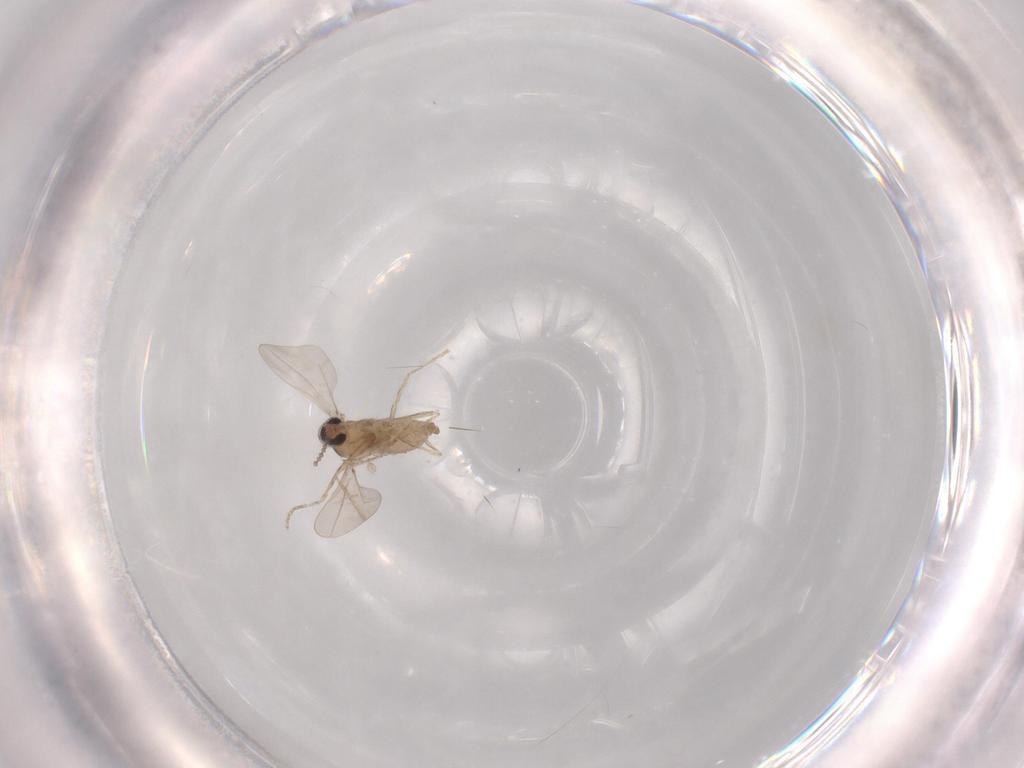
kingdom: Animalia
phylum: Arthropoda
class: Insecta
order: Diptera
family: Cecidomyiidae
